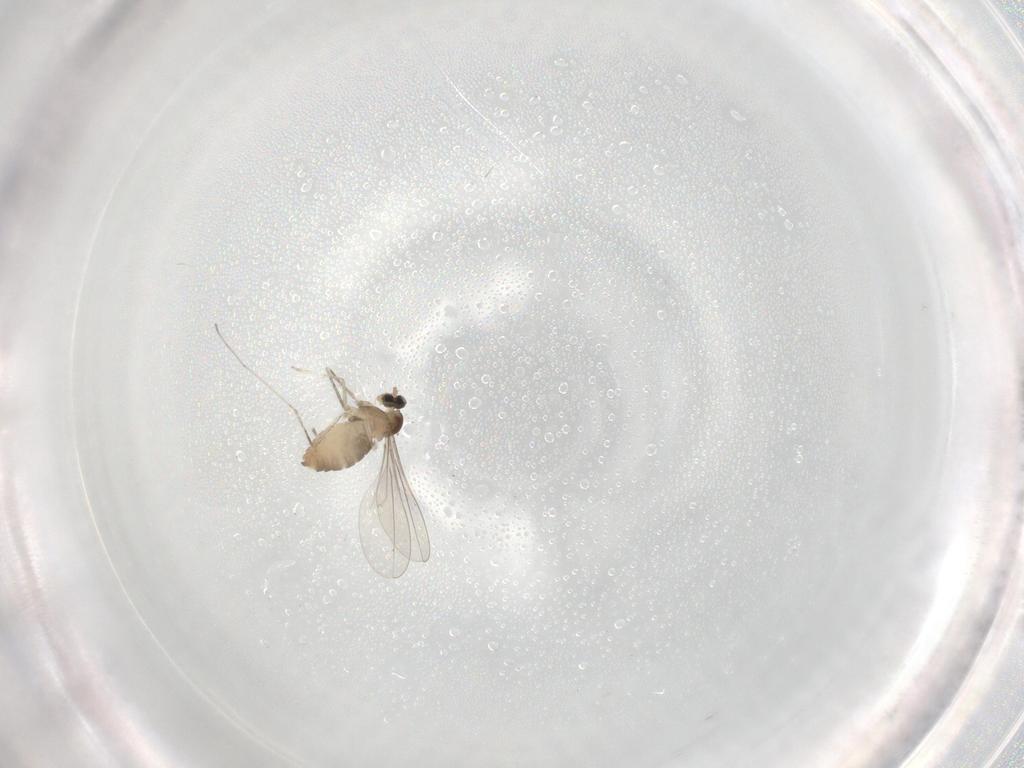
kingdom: Animalia
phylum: Arthropoda
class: Insecta
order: Diptera
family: Cecidomyiidae
